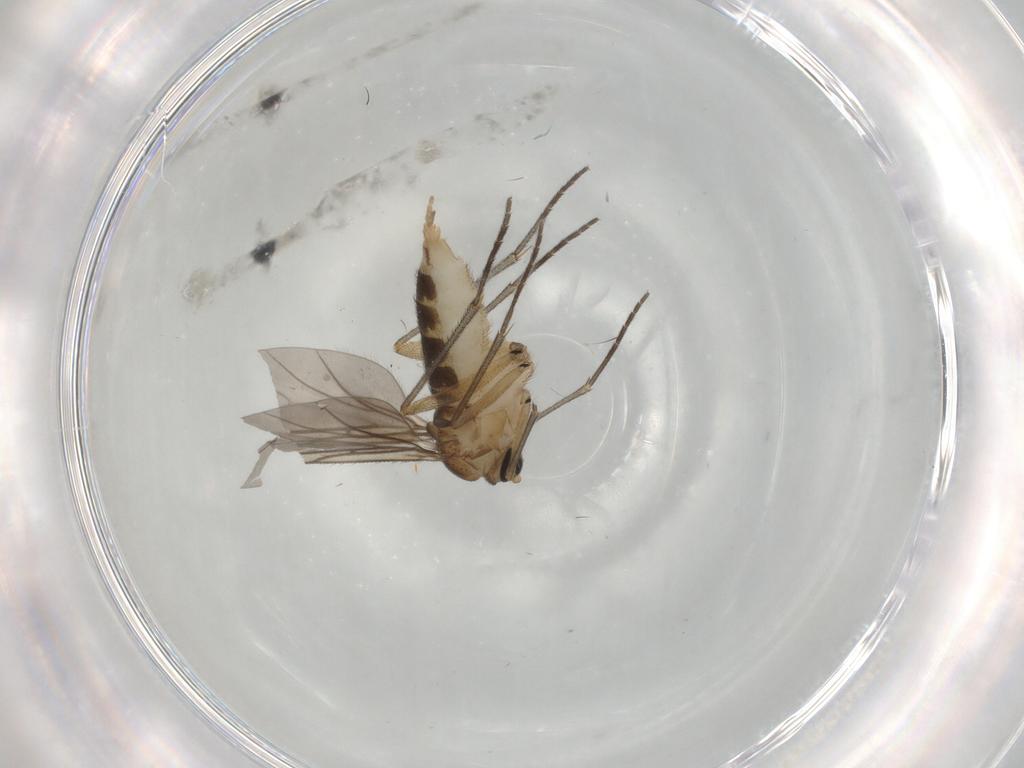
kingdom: Animalia
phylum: Arthropoda
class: Insecta
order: Diptera
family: Sciaridae
